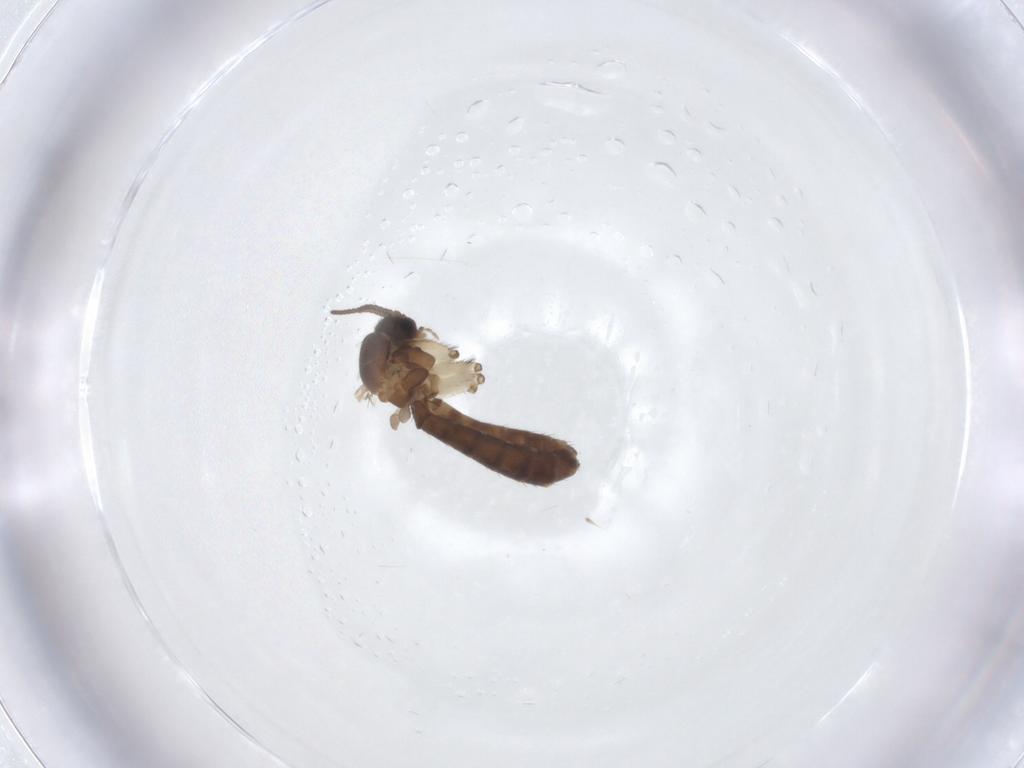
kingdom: Animalia
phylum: Arthropoda
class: Insecta
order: Diptera
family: Keroplatidae
